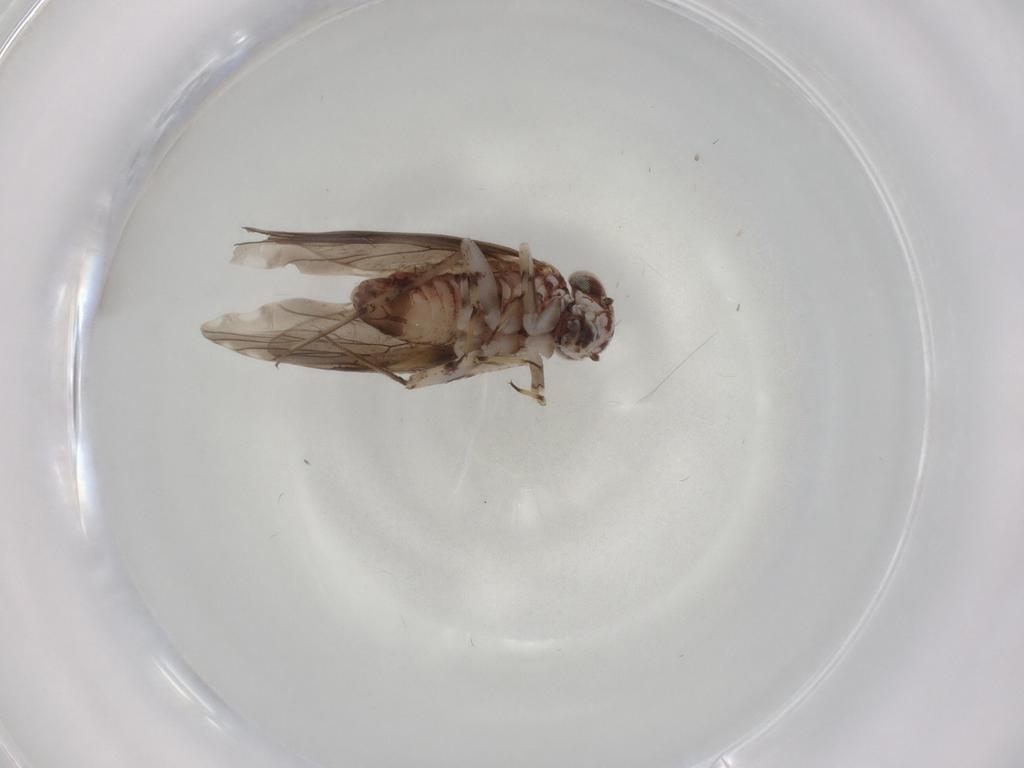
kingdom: Animalia
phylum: Arthropoda
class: Insecta
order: Psocodea
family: Amphientomidae
